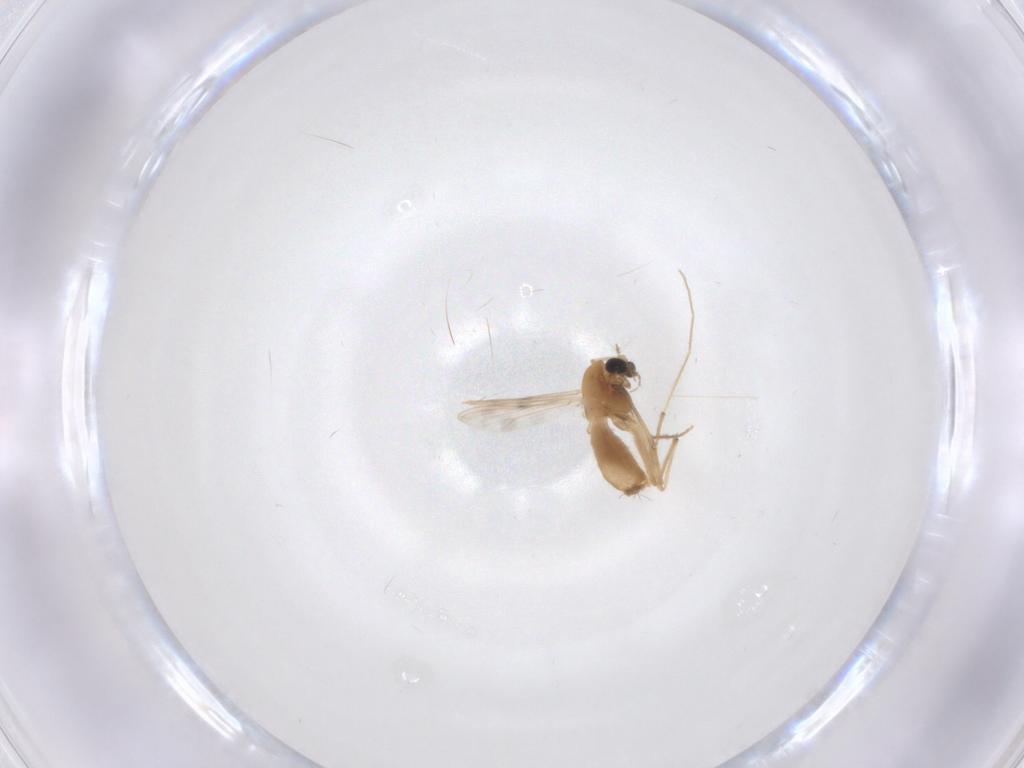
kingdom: Animalia
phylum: Arthropoda
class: Insecta
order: Diptera
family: Chironomidae
